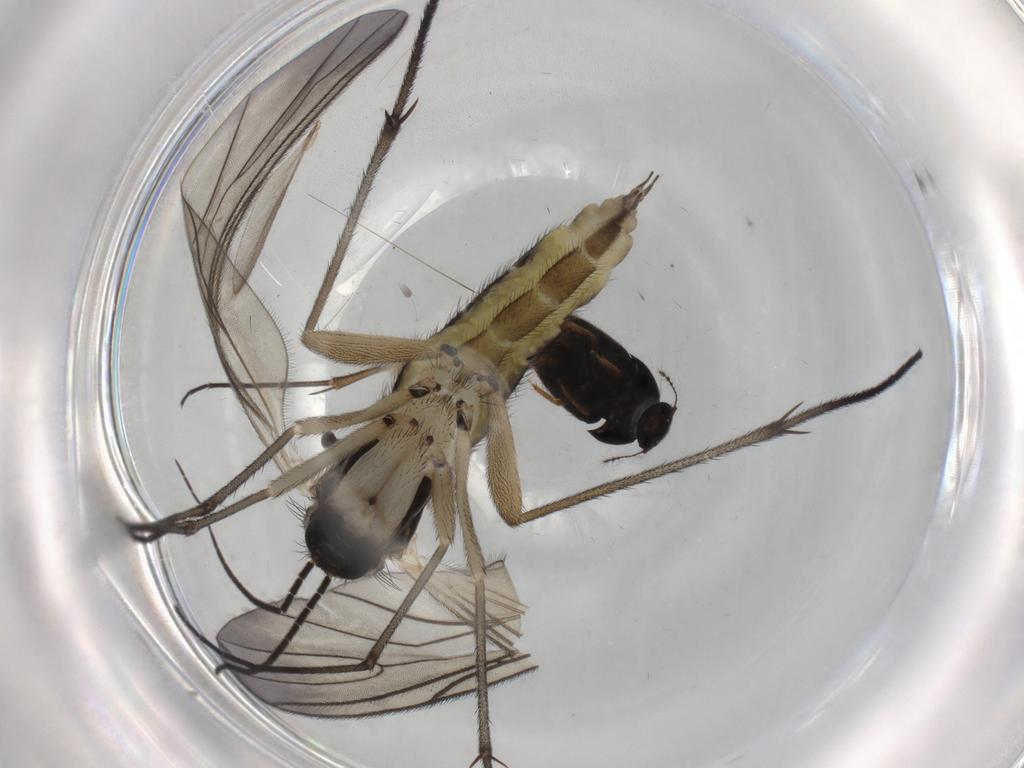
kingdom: Animalia
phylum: Arthropoda
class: Insecta
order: Diptera
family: Sciaridae
